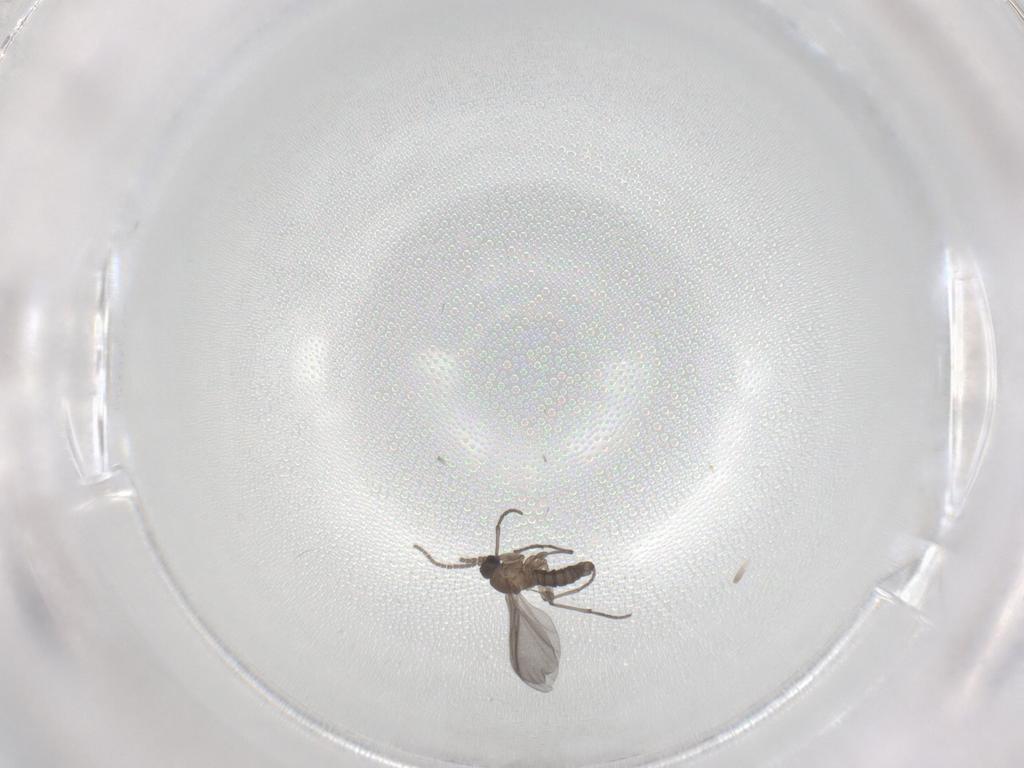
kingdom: Animalia
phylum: Arthropoda
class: Insecta
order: Diptera
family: Sciaridae
